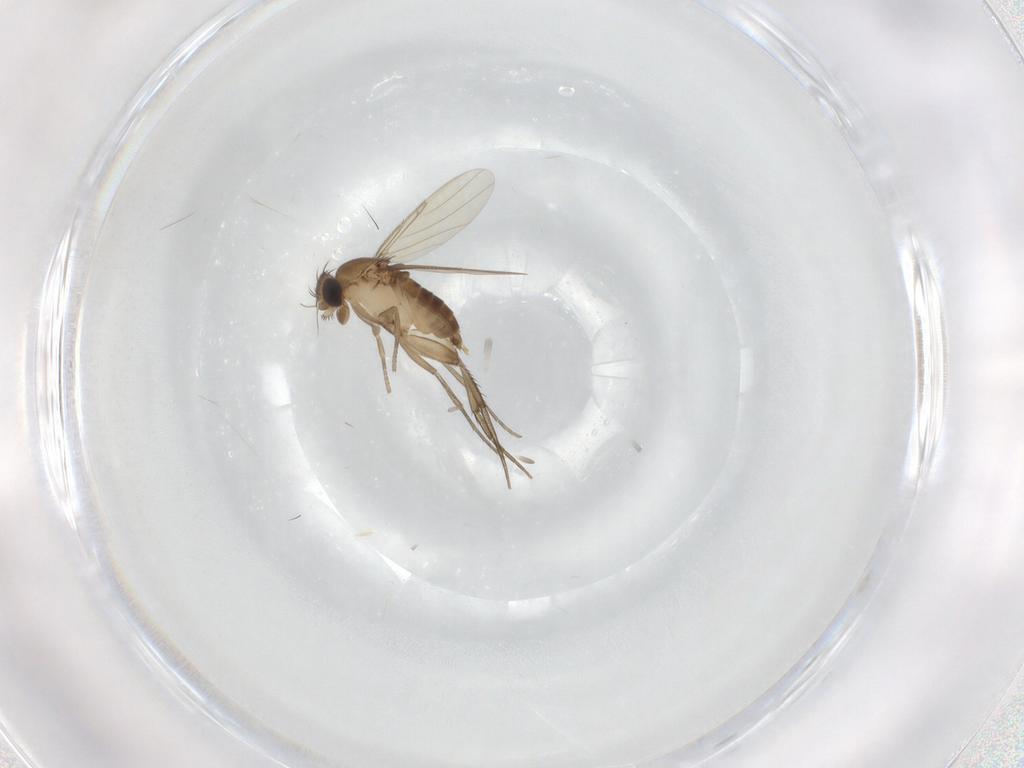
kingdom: Animalia
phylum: Arthropoda
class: Insecta
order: Diptera
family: Phoridae
